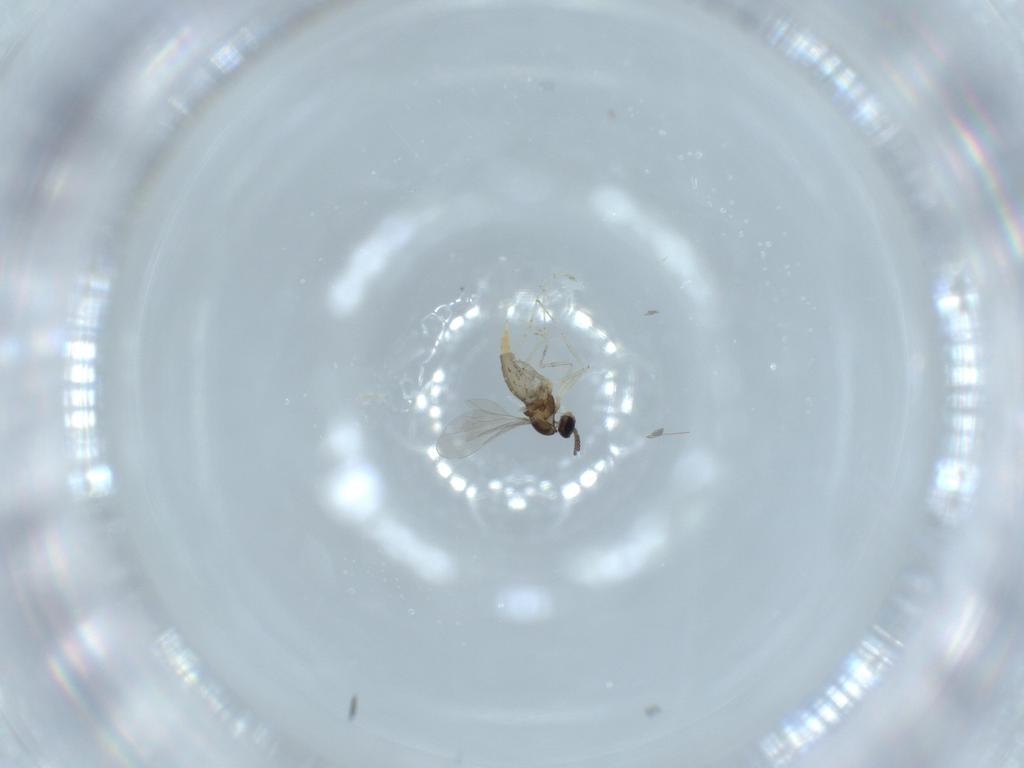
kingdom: Animalia
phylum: Arthropoda
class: Insecta
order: Diptera
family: Cecidomyiidae
